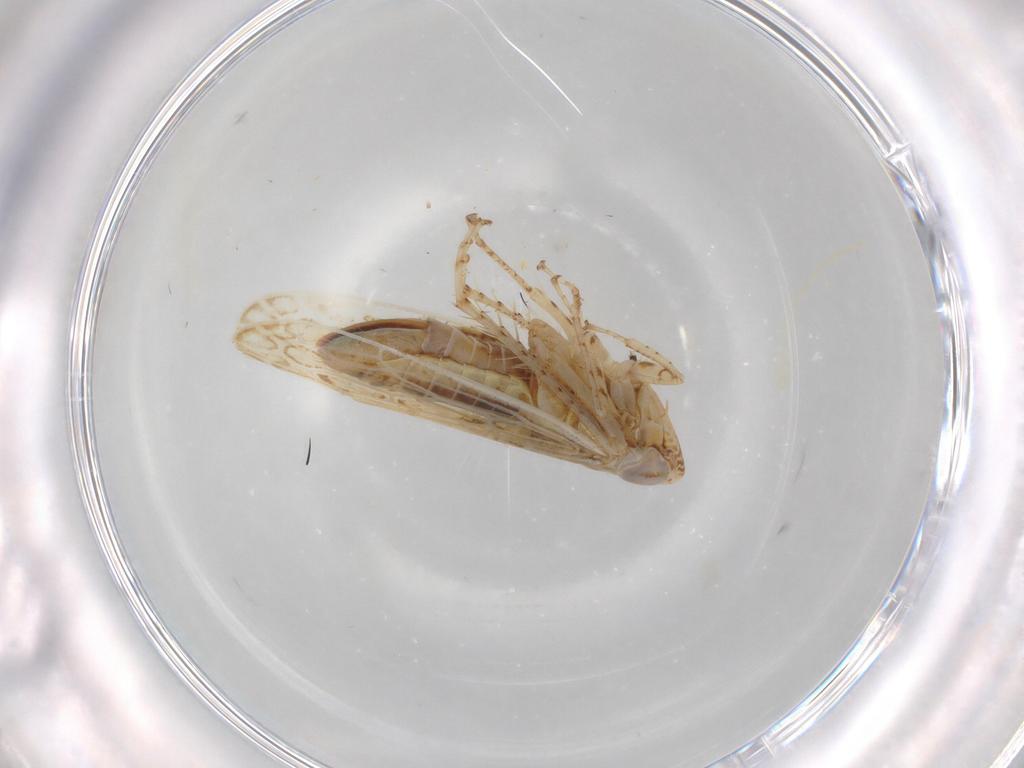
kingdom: Animalia
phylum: Arthropoda
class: Insecta
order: Hemiptera
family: Cicadellidae
